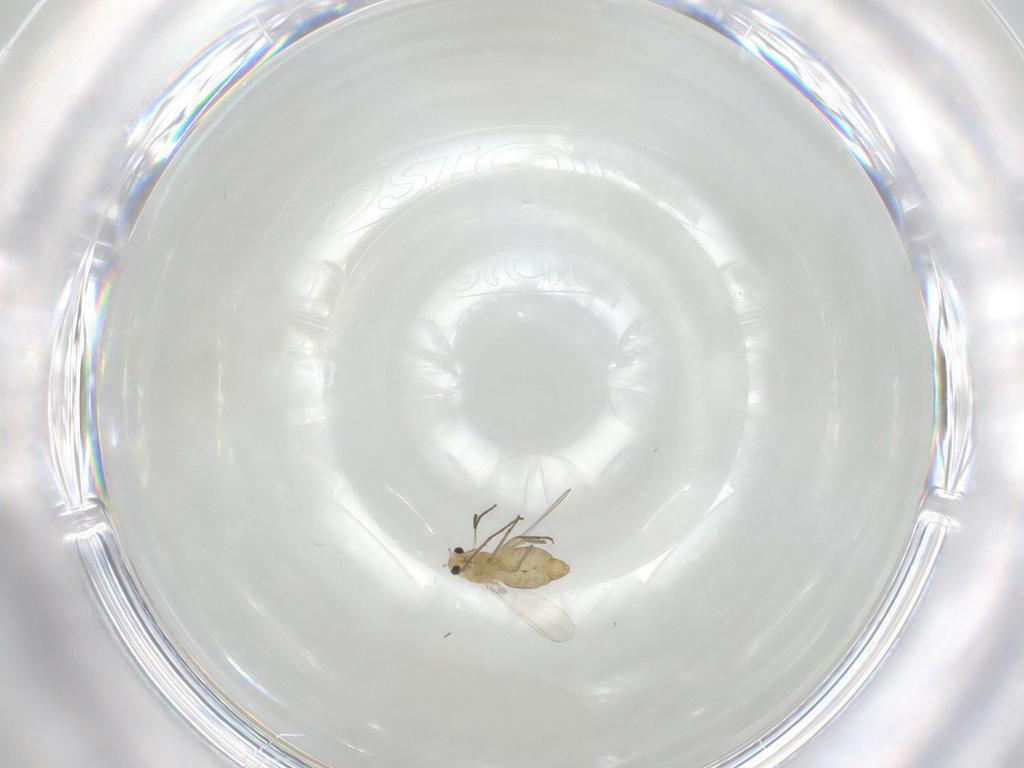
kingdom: Animalia
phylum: Arthropoda
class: Insecta
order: Diptera
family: Chironomidae
